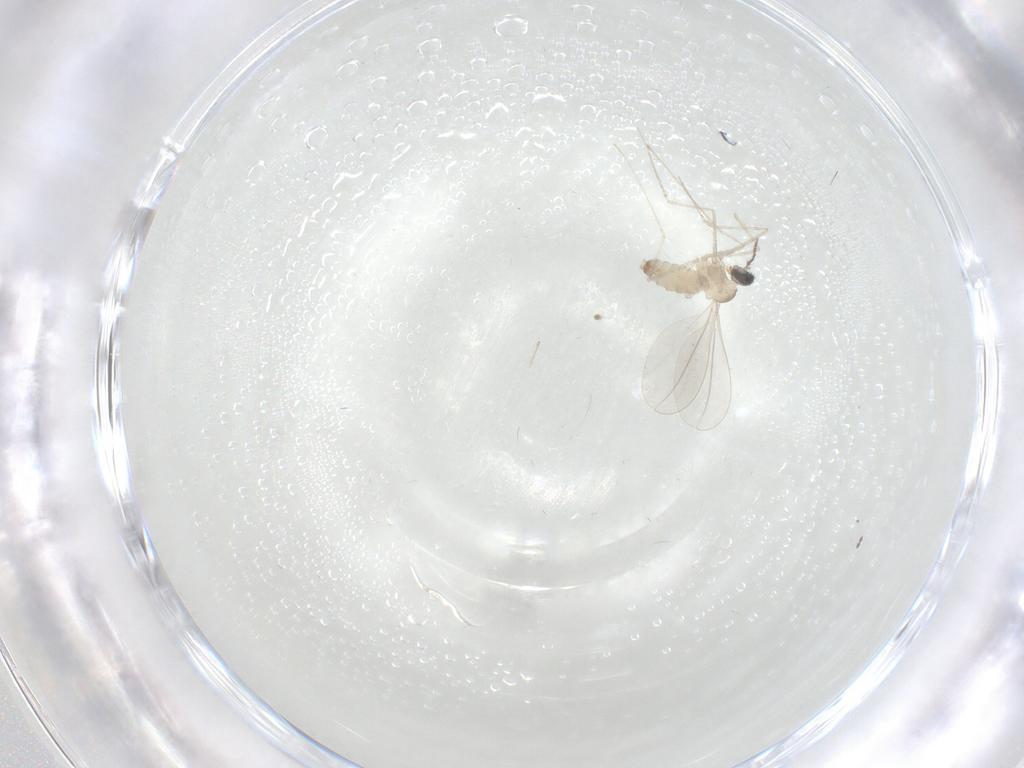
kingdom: Animalia
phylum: Arthropoda
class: Insecta
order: Diptera
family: Cecidomyiidae
